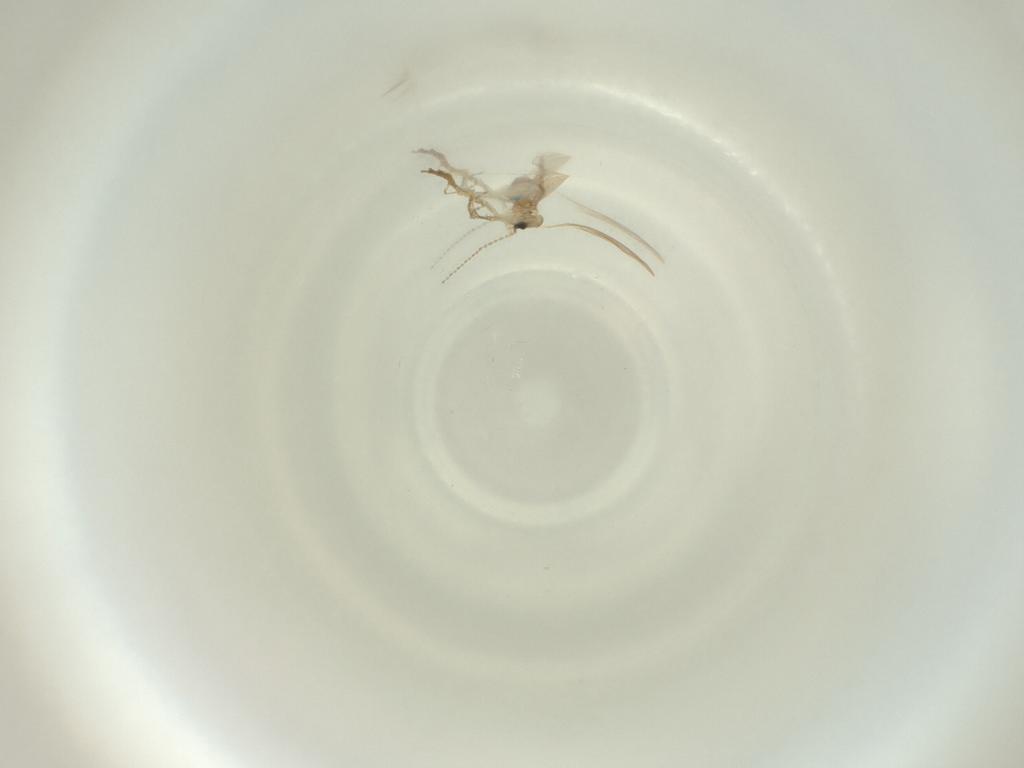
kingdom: Animalia
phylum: Arthropoda
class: Insecta
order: Diptera
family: Cecidomyiidae
